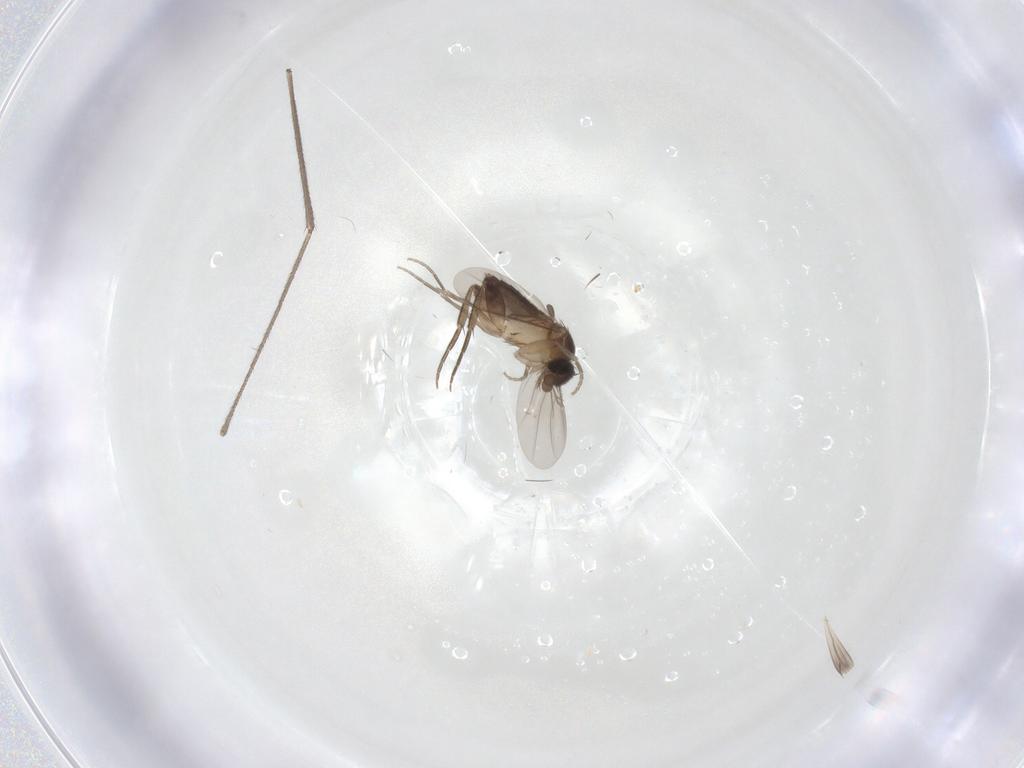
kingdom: Animalia
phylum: Arthropoda
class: Insecta
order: Diptera
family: Phoridae
